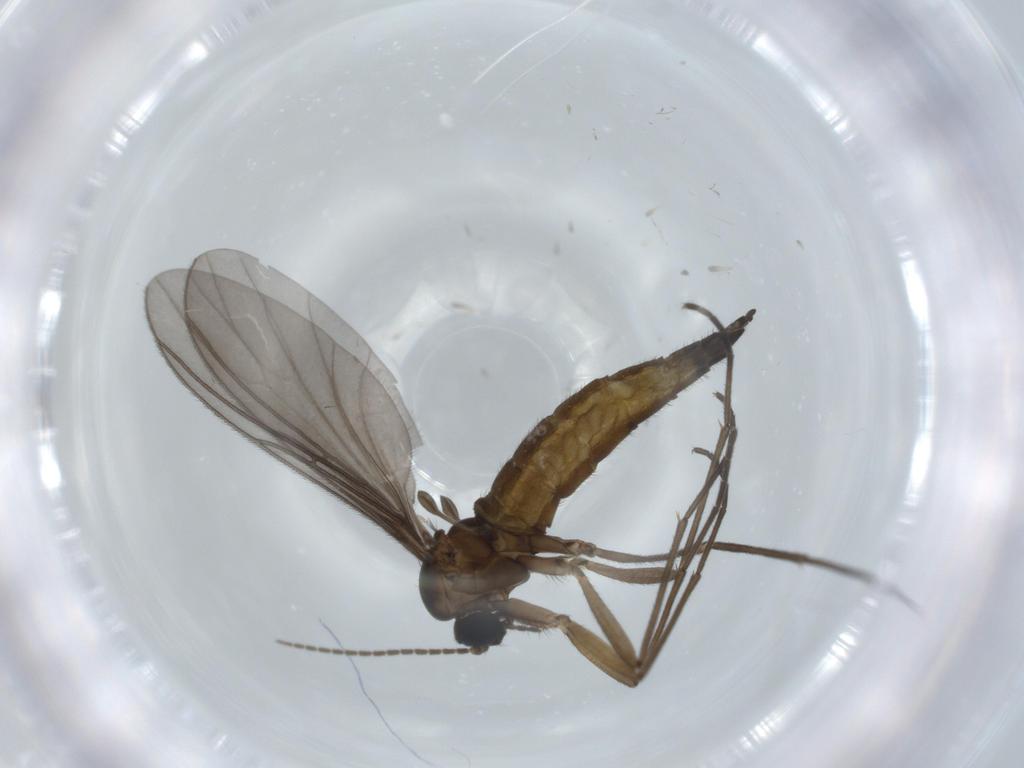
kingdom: Animalia
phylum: Arthropoda
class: Insecta
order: Diptera
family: Sciaridae
